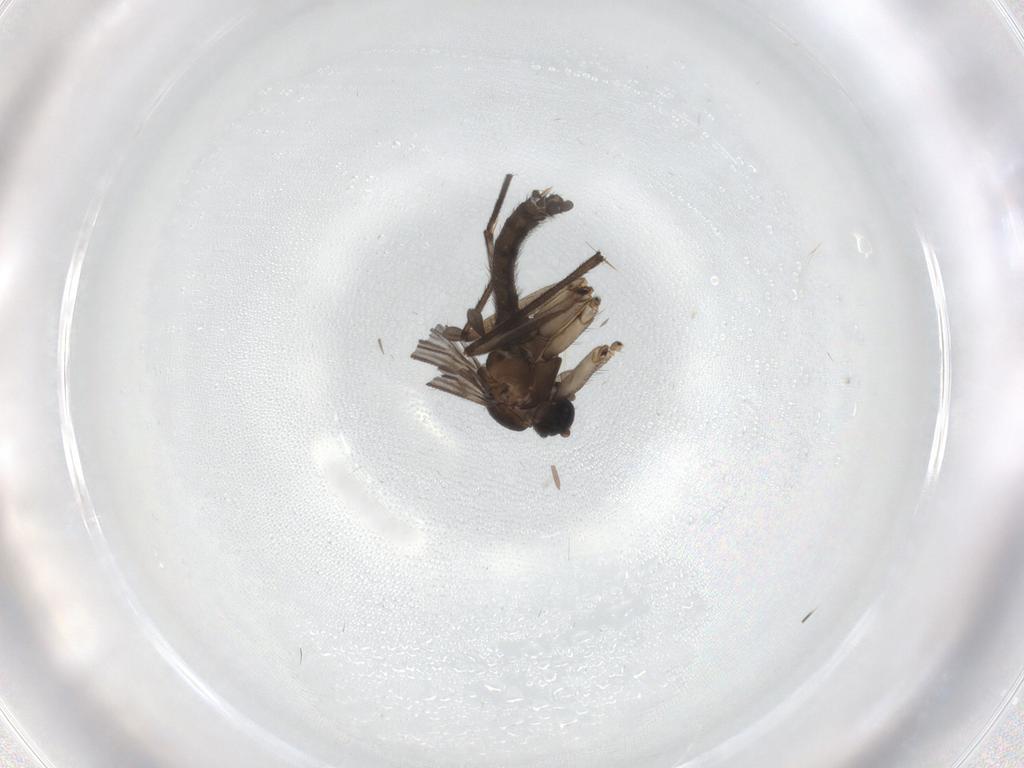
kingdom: Animalia
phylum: Arthropoda
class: Insecta
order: Diptera
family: Sciaridae
